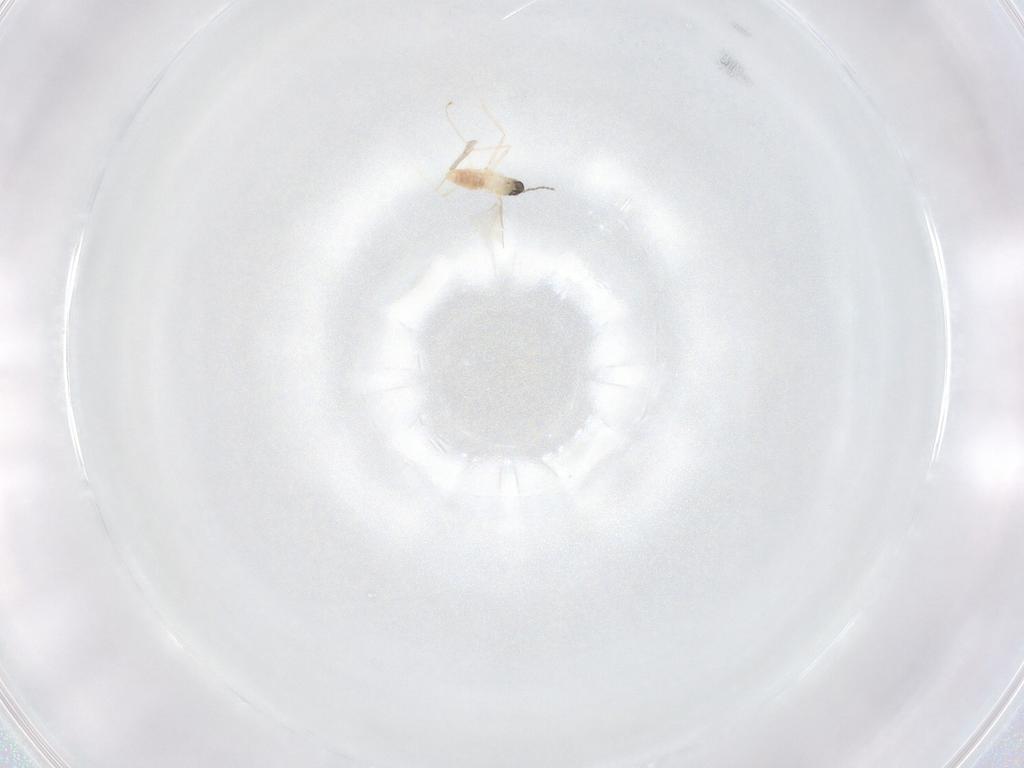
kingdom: Animalia
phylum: Arthropoda
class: Insecta
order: Diptera
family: Cecidomyiidae
